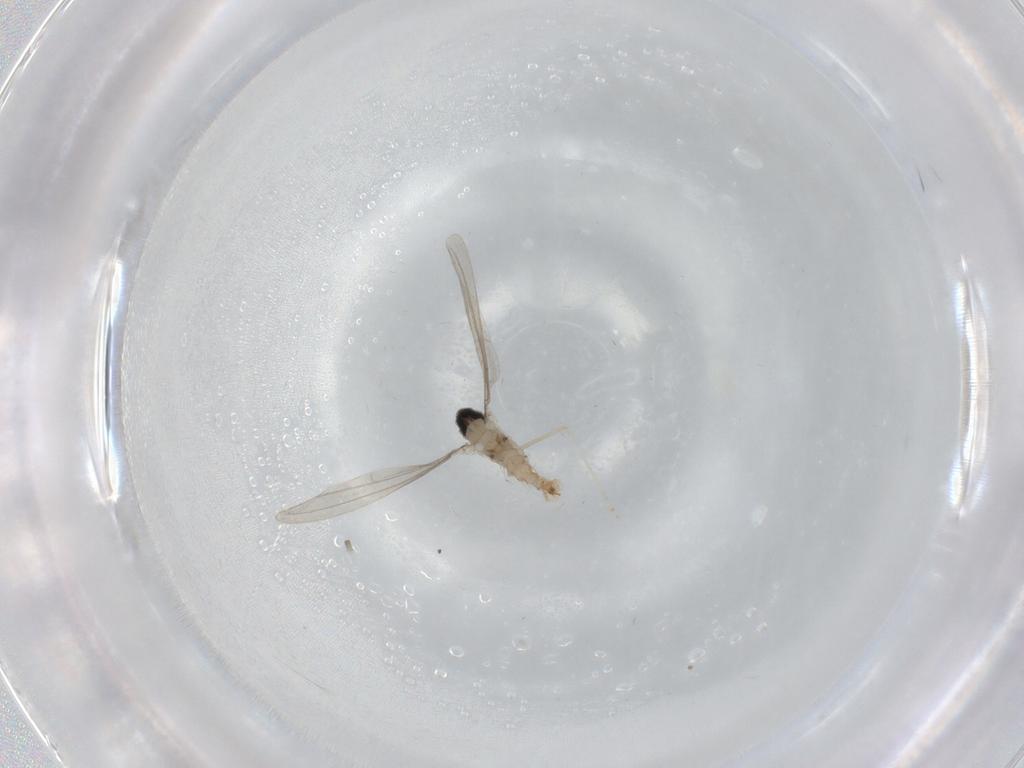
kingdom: Animalia
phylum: Arthropoda
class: Insecta
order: Diptera
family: Cecidomyiidae
